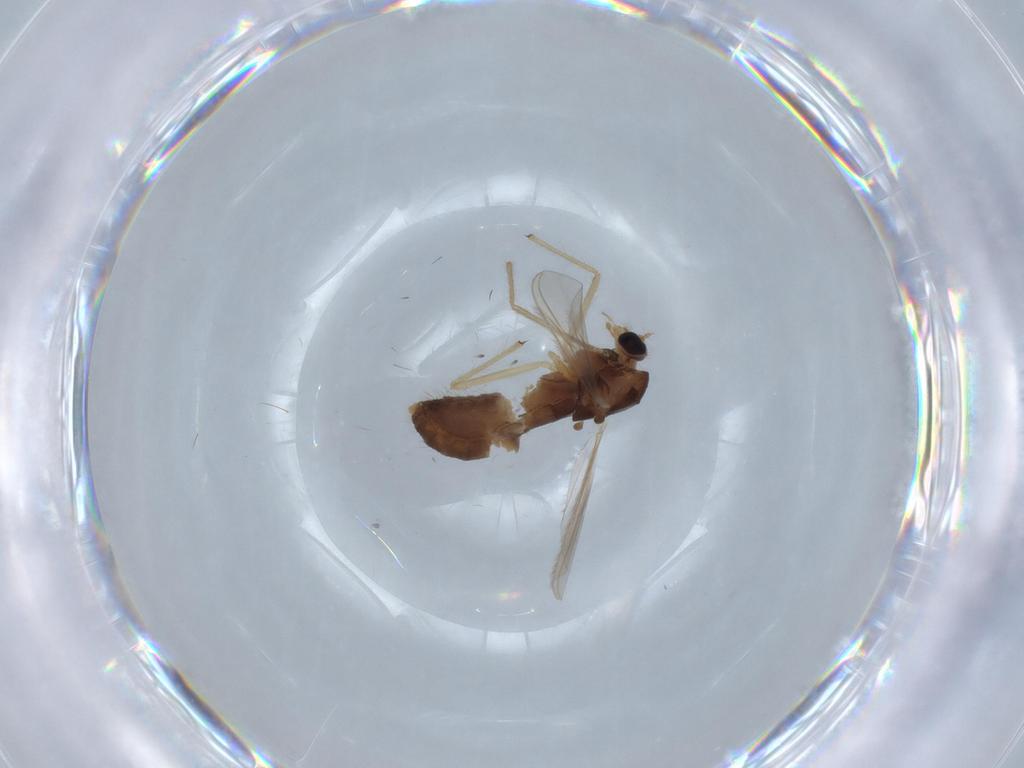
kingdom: Animalia
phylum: Arthropoda
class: Insecta
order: Diptera
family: Chironomidae
